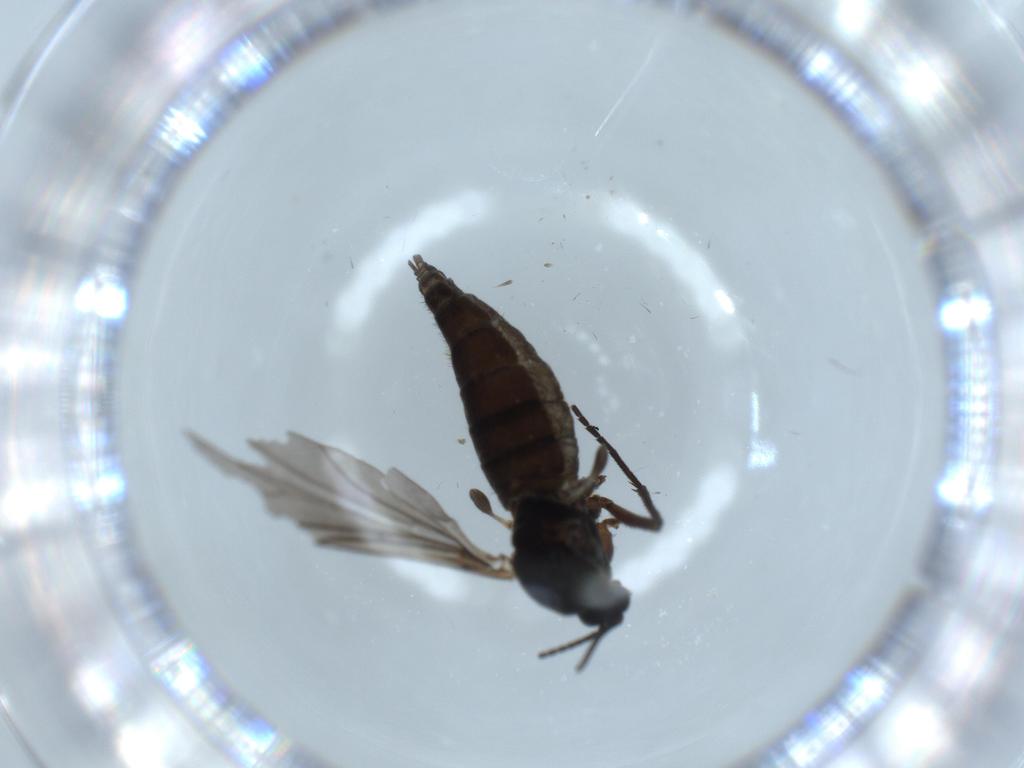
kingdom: Animalia
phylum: Arthropoda
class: Insecta
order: Diptera
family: Sciaridae
